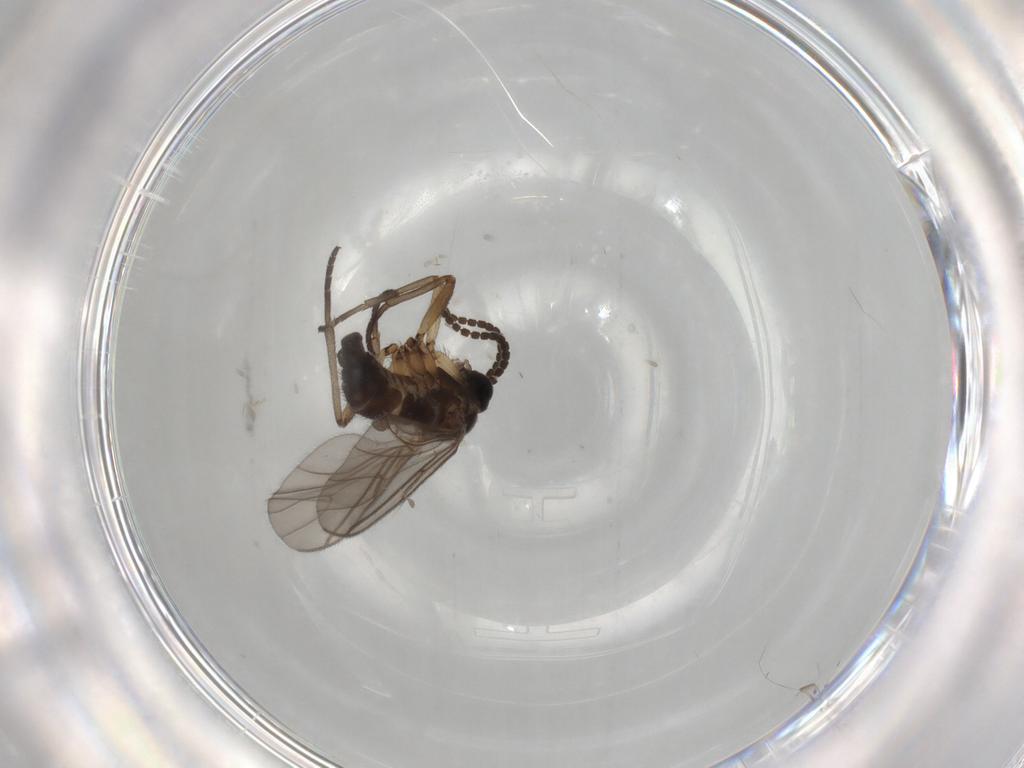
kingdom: Animalia
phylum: Arthropoda
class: Insecta
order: Diptera
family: Sciaridae
